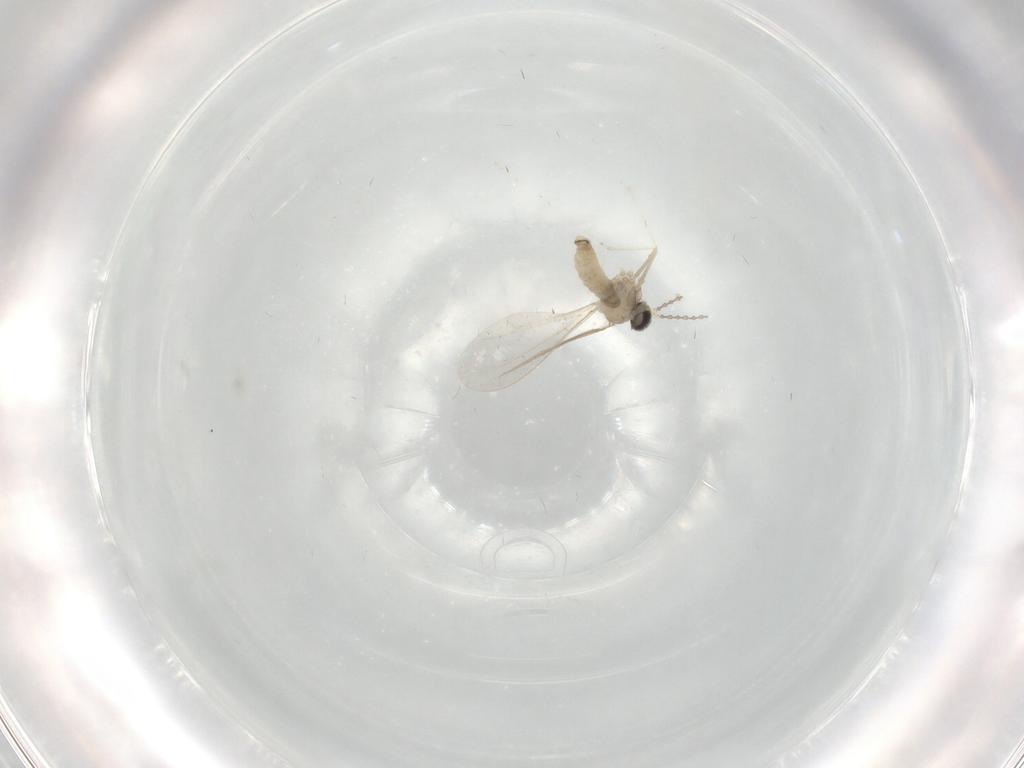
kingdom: Animalia
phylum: Arthropoda
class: Insecta
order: Diptera
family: Cecidomyiidae
